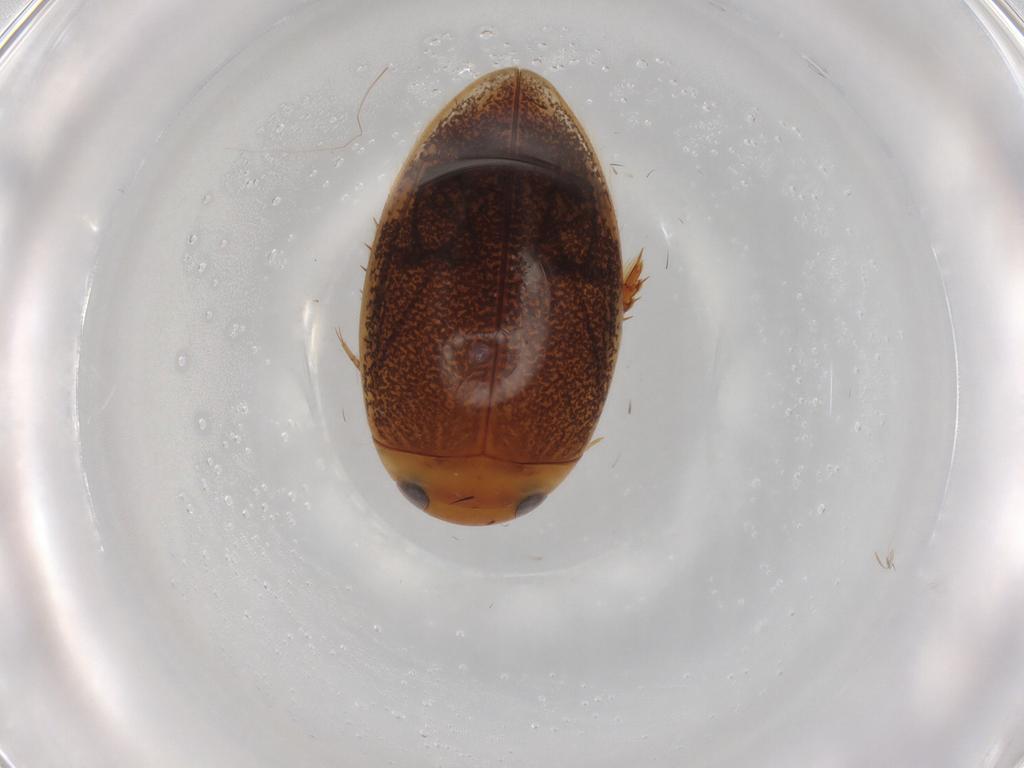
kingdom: Animalia
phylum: Arthropoda
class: Insecta
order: Coleoptera
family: Dytiscidae
